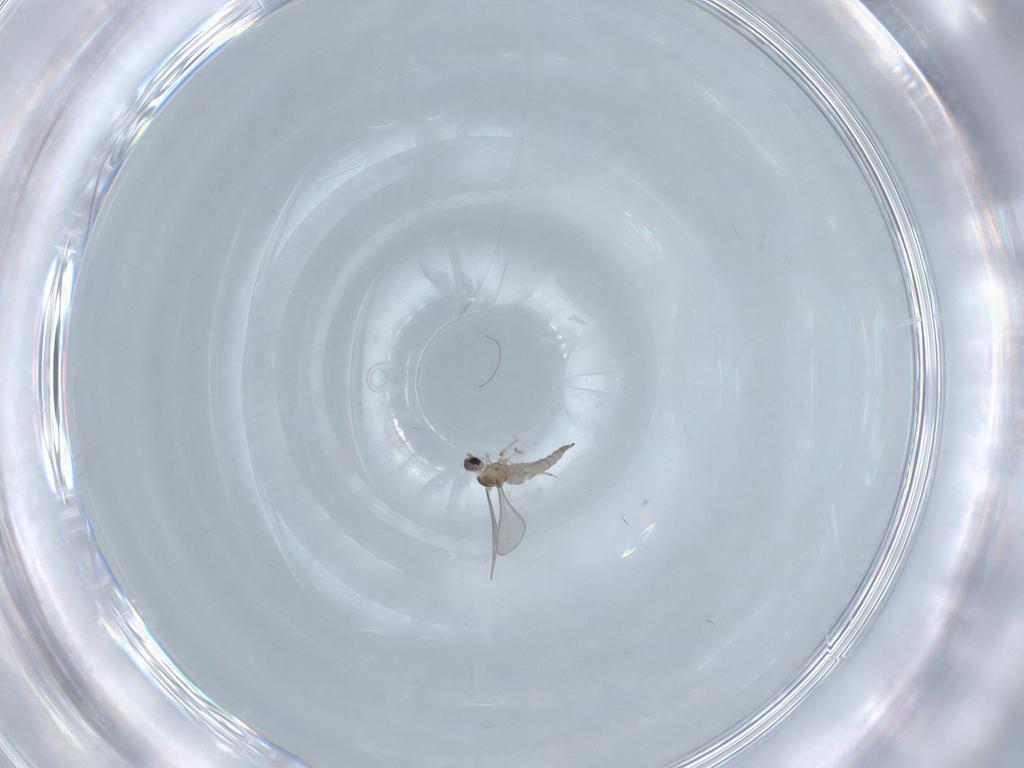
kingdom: Animalia
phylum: Arthropoda
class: Insecta
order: Diptera
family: Cecidomyiidae
